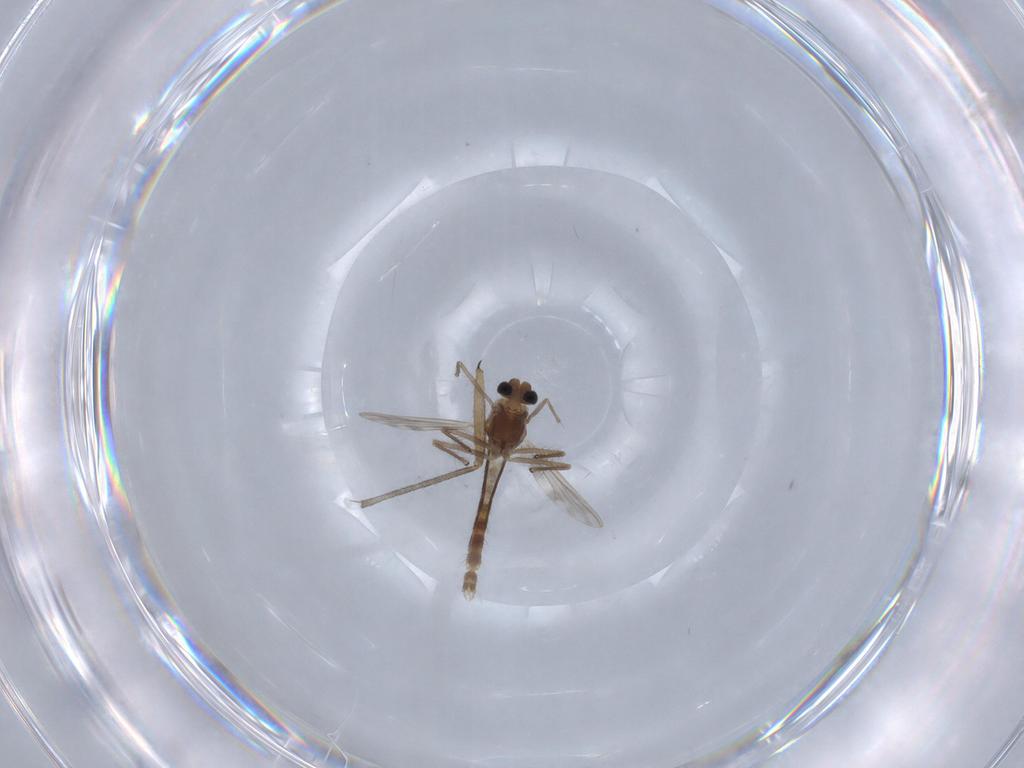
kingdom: Animalia
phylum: Arthropoda
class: Insecta
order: Diptera
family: Chironomidae
